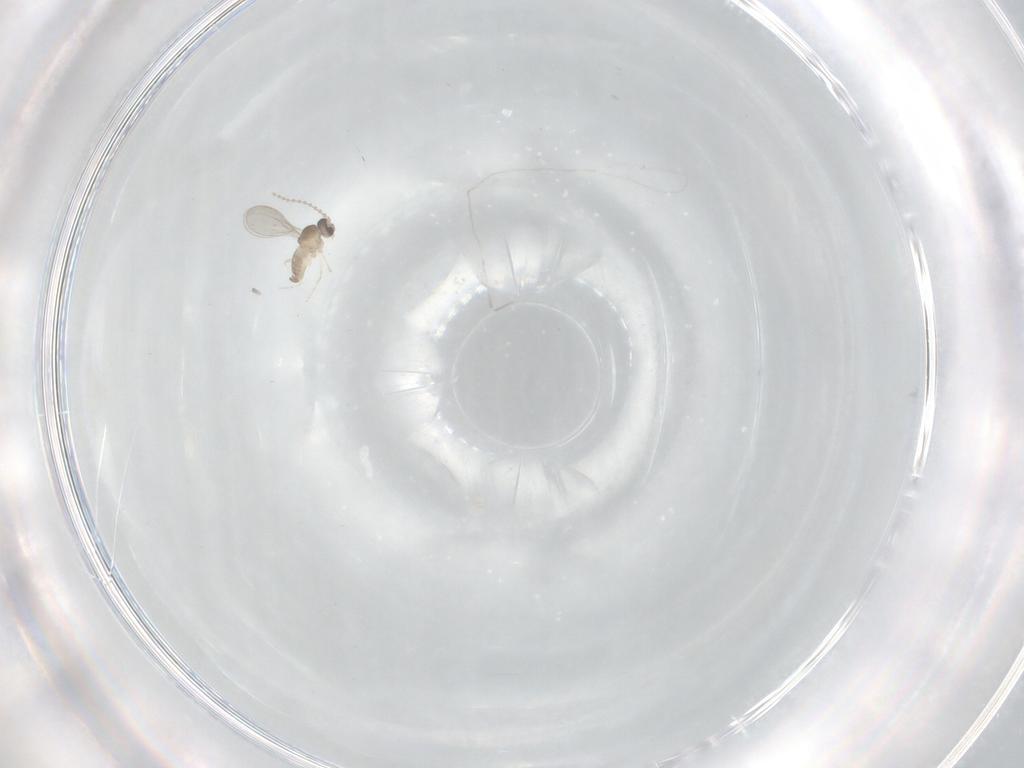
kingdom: Animalia
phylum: Arthropoda
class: Insecta
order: Diptera
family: Cecidomyiidae
